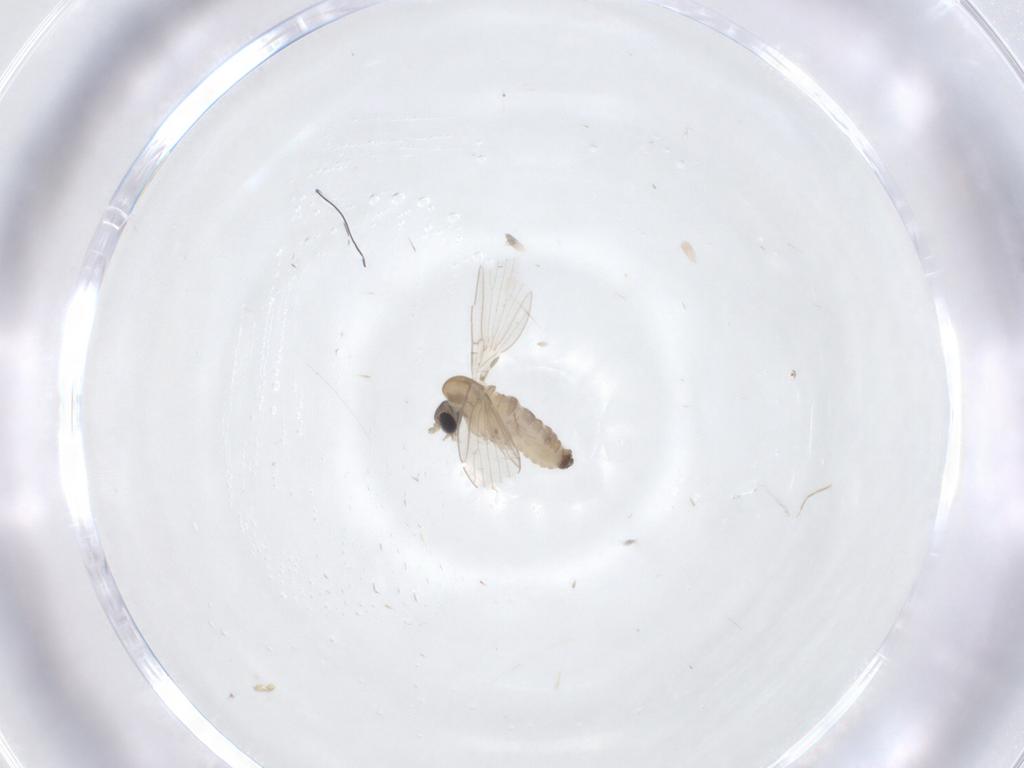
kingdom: Animalia
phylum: Arthropoda
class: Insecta
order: Diptera
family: Psychodidae
